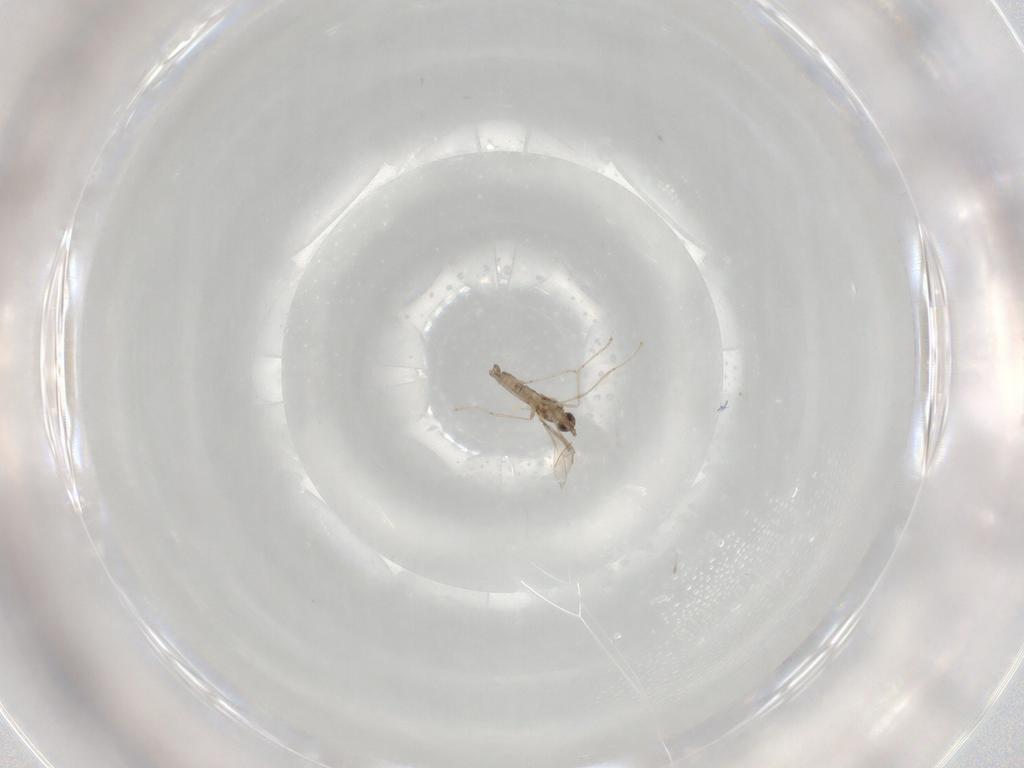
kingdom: Animalia
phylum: Arthropoda
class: Insecta
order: Diptera
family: Cecidomyiidae
